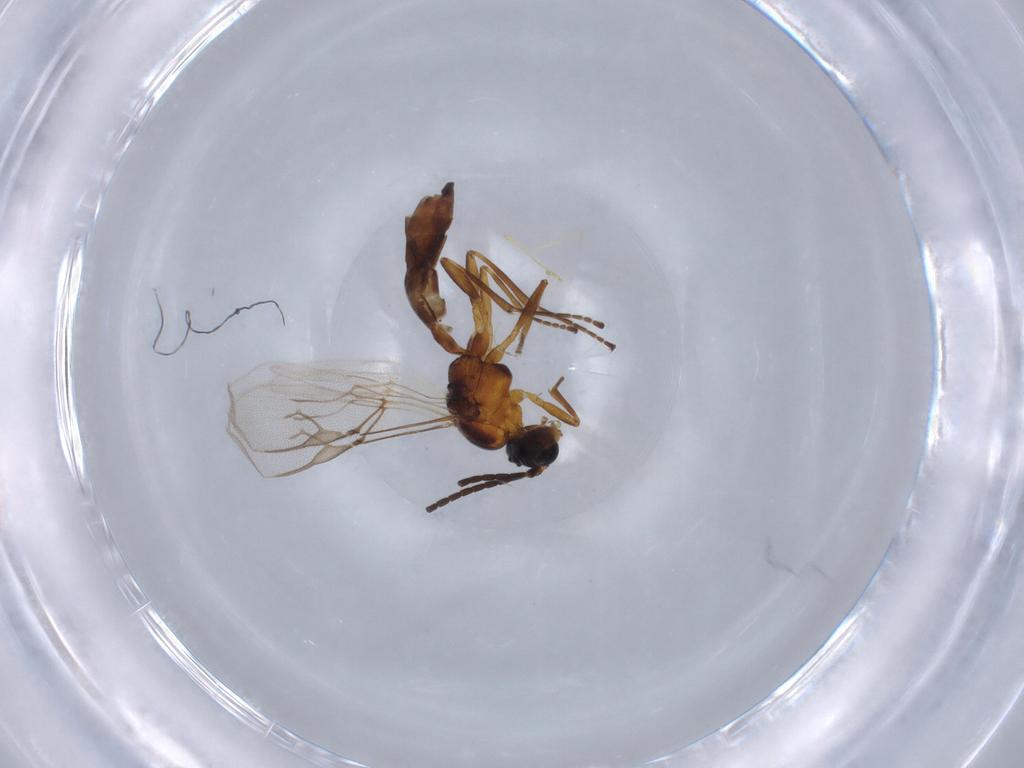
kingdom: Animalia
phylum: Arthropoda
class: Insecta
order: Hymenoptera
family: Braconidae
